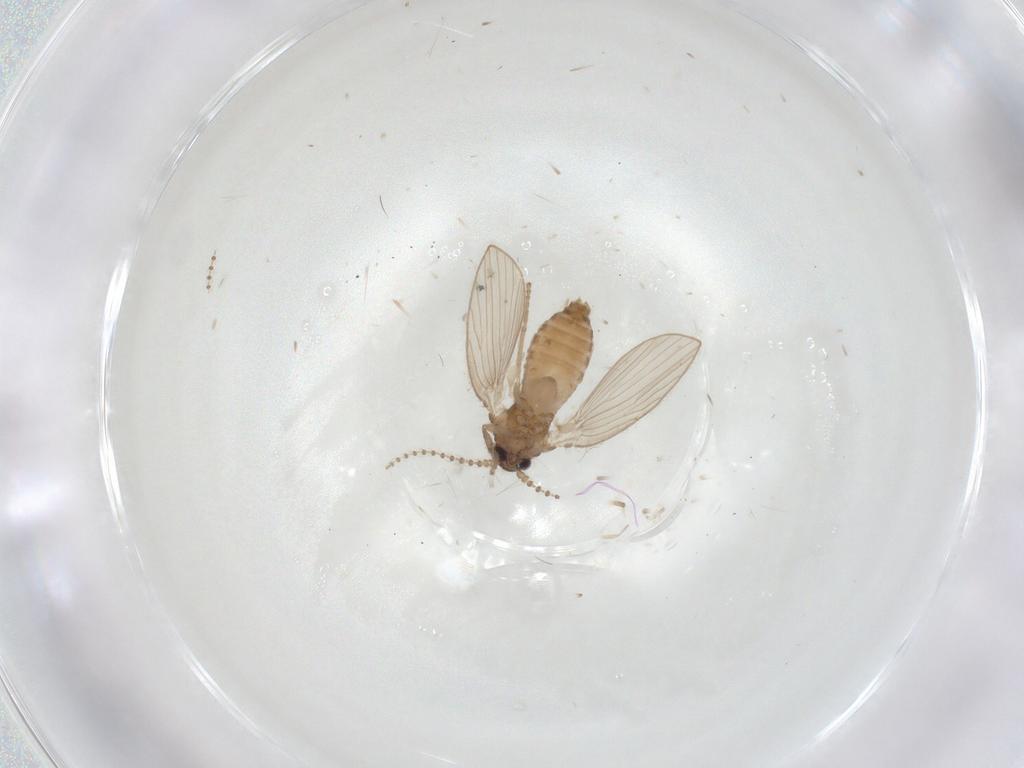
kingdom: Animalia
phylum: Arthropoda
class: Insecta
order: Diptera
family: Psychodidae
